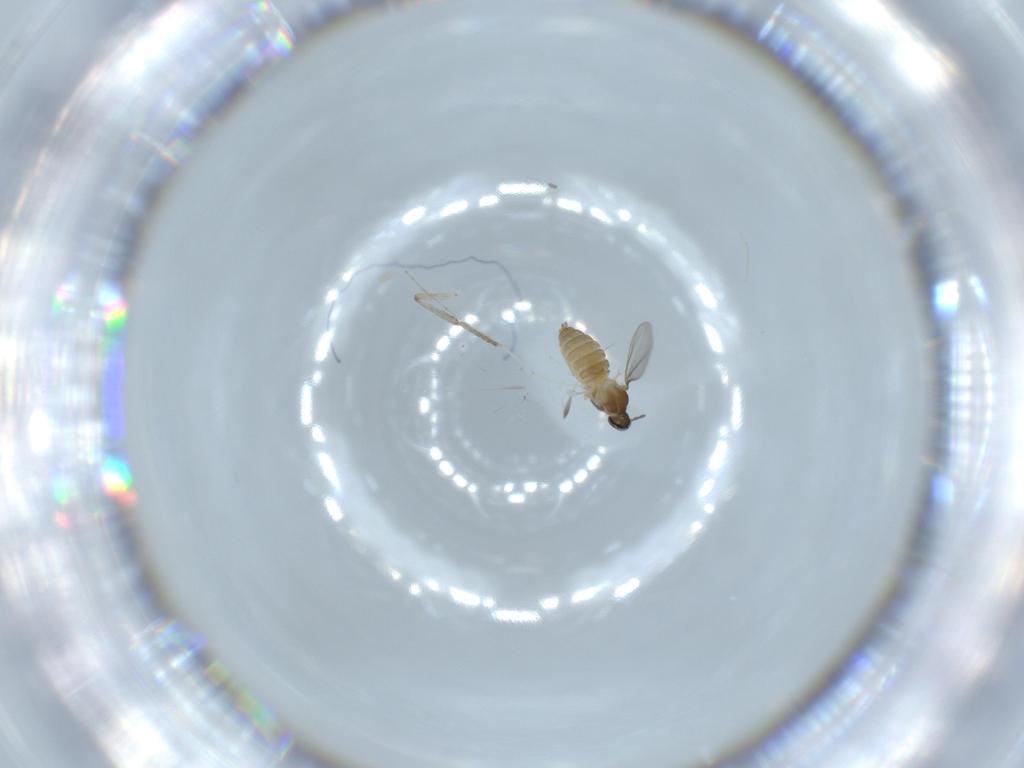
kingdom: Animalia
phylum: Arthropoda
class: Insecta
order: Diptera
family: Cecidomyiidae
